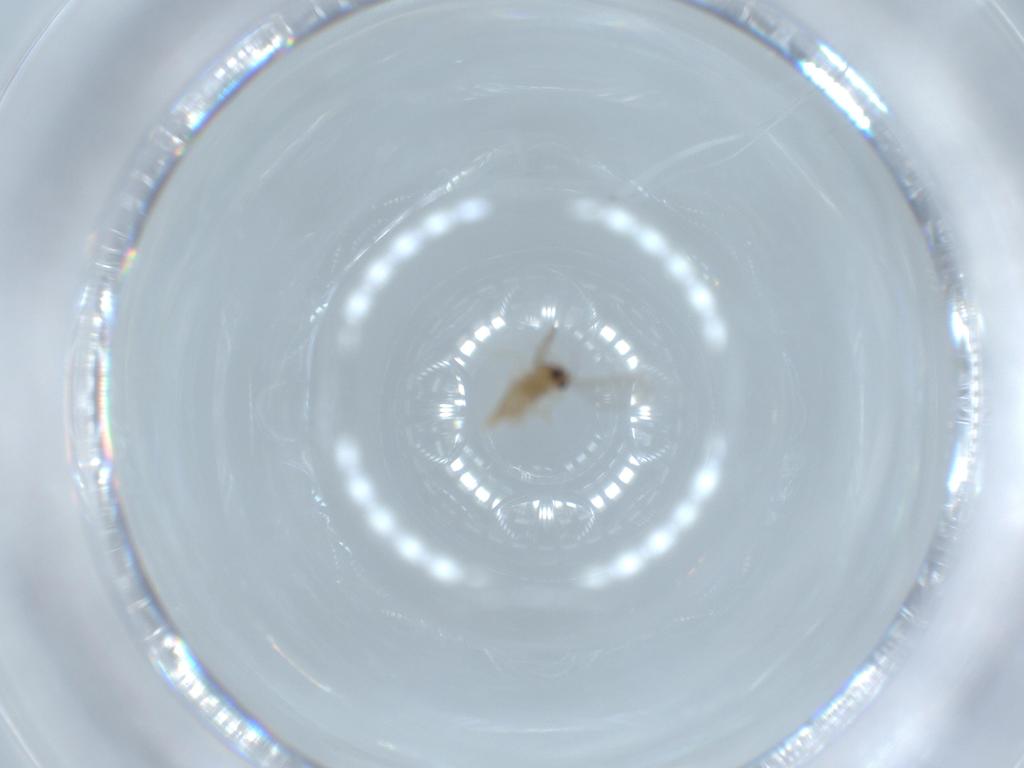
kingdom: Animalia
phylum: Arthropoda
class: Insecta
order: Diptera
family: Cecidomyiidae
